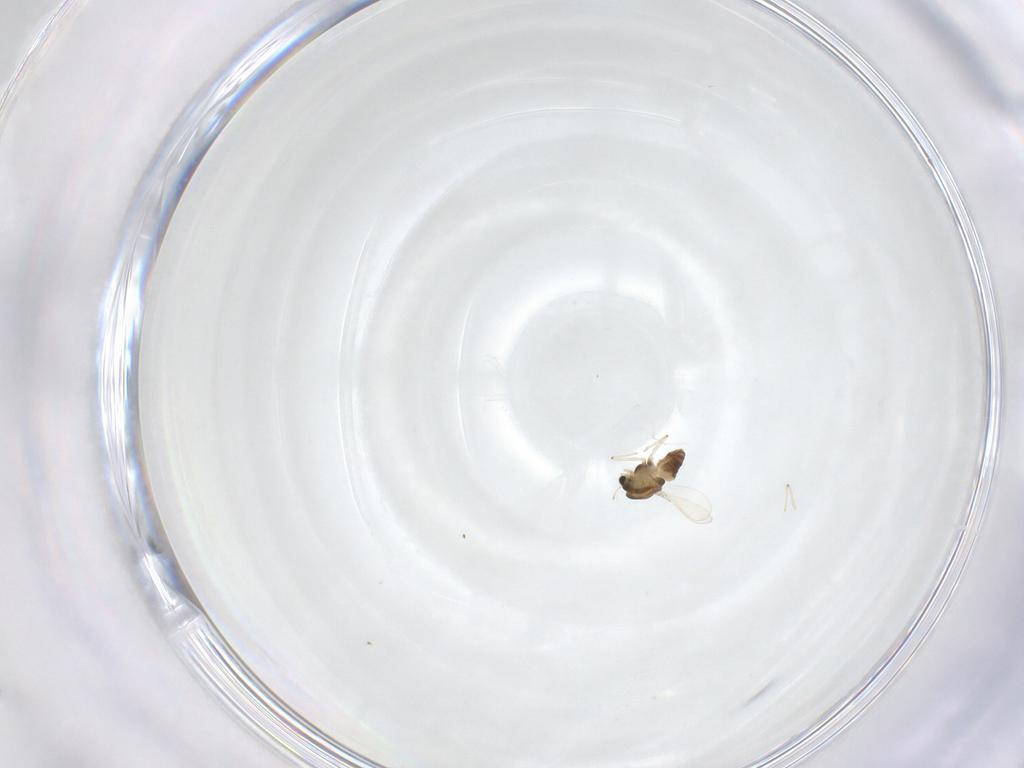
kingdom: Animalia
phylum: Arthropoda
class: Insecta
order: Diptera
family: Chironomidae
